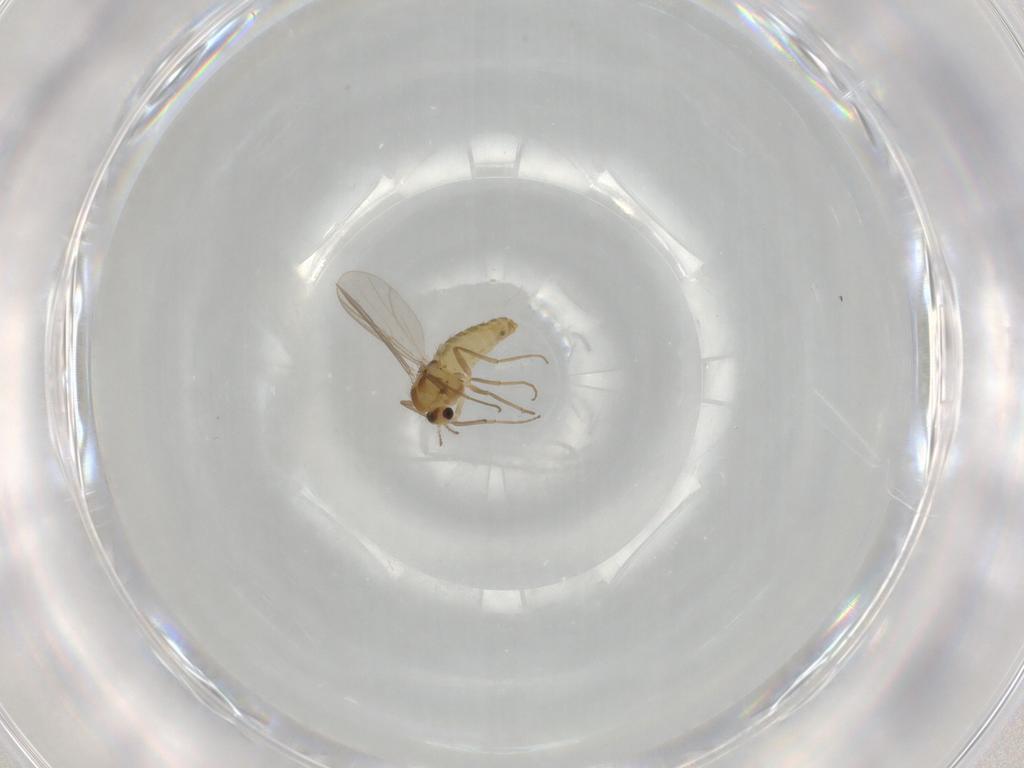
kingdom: Animalia
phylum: Arthropoda
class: Insecta
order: Diptera
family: Chironomidae
